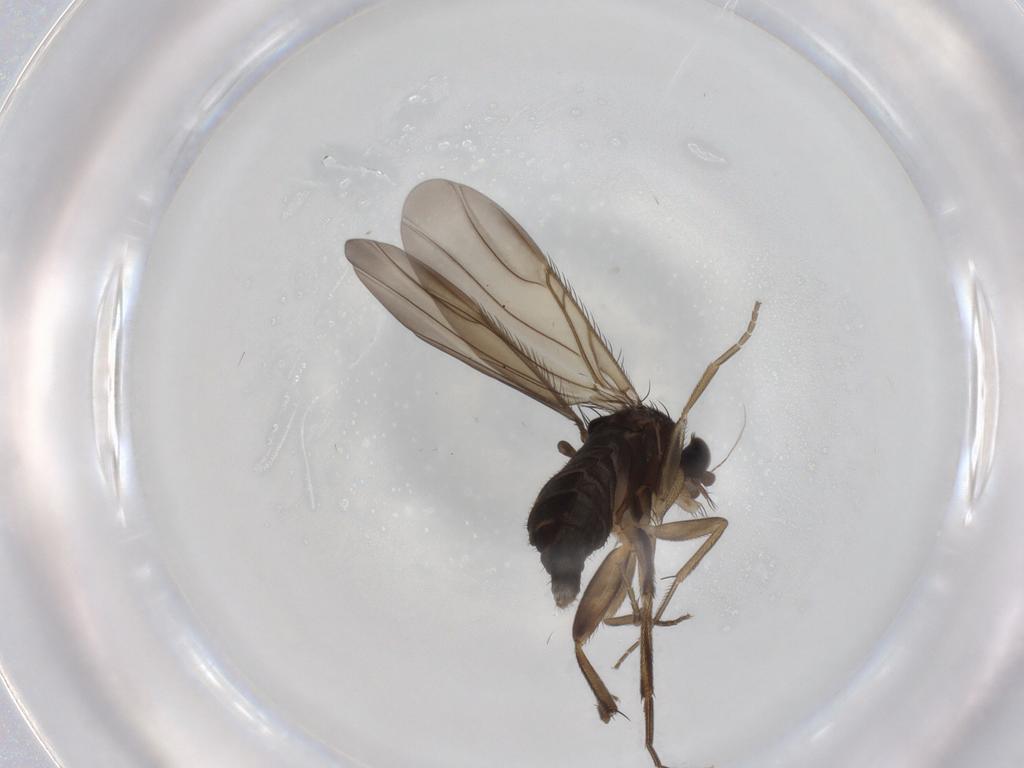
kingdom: Animalia
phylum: Arthropoda
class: Insecta
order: Diptera
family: Phoridae
